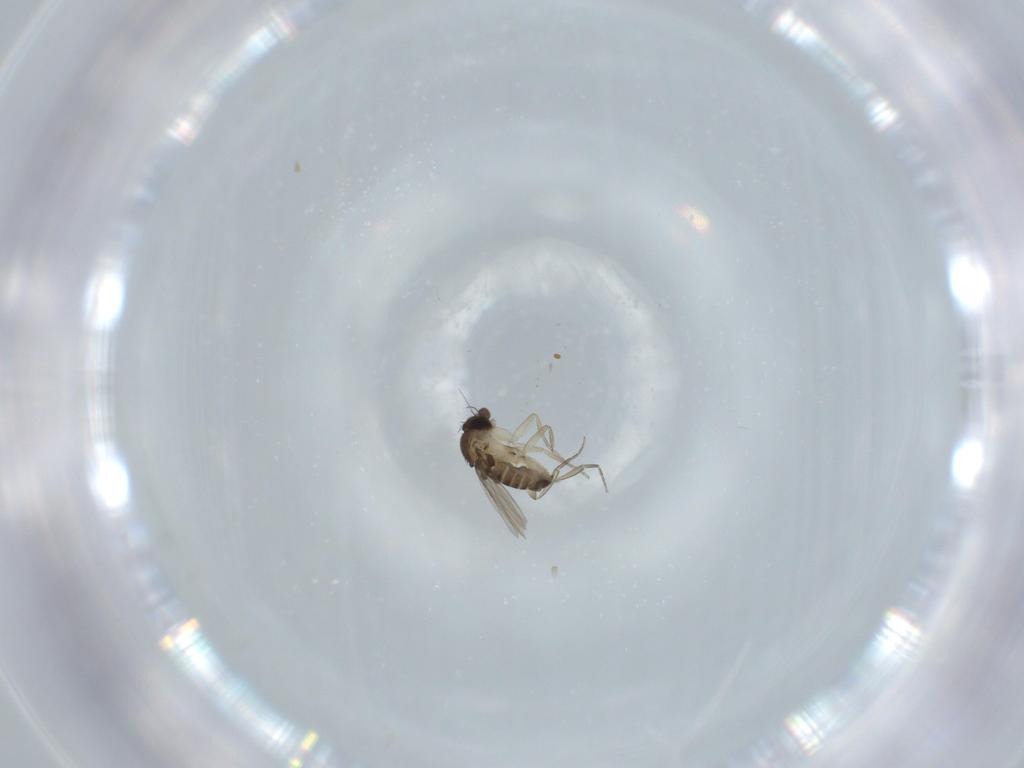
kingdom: Animalia
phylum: Arthropoda
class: Insecta
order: Diptera
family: Phoridae
